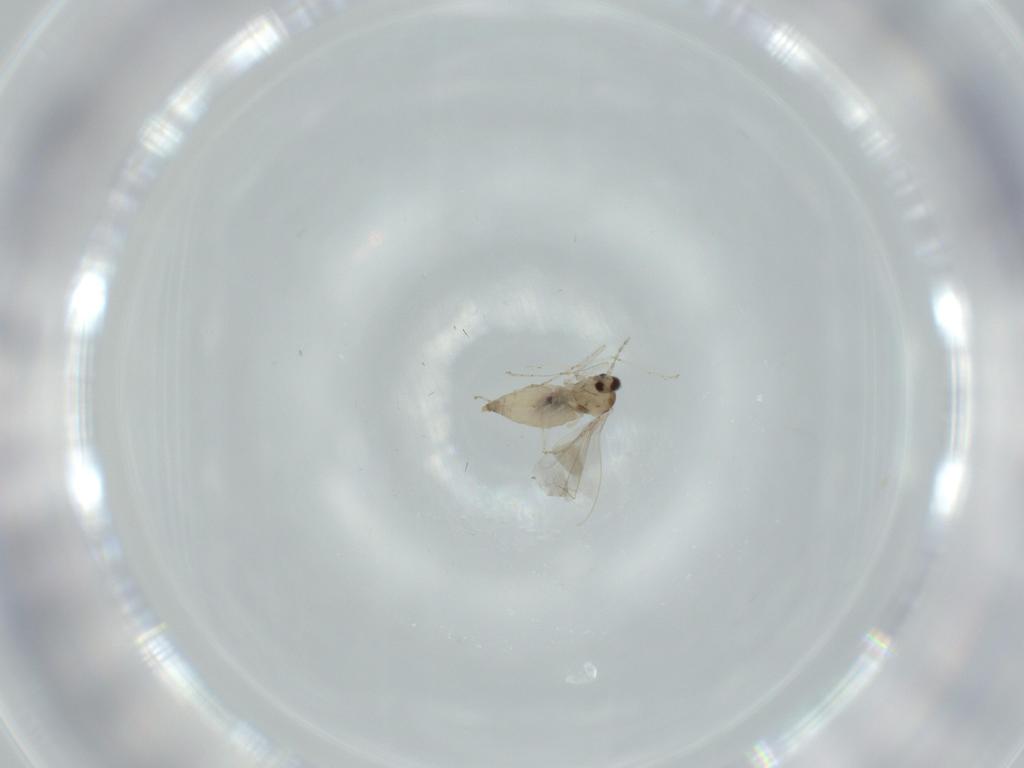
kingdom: Animalia
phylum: Arthropoda
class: Insecta
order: Diptera
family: Cecidomyiidae
